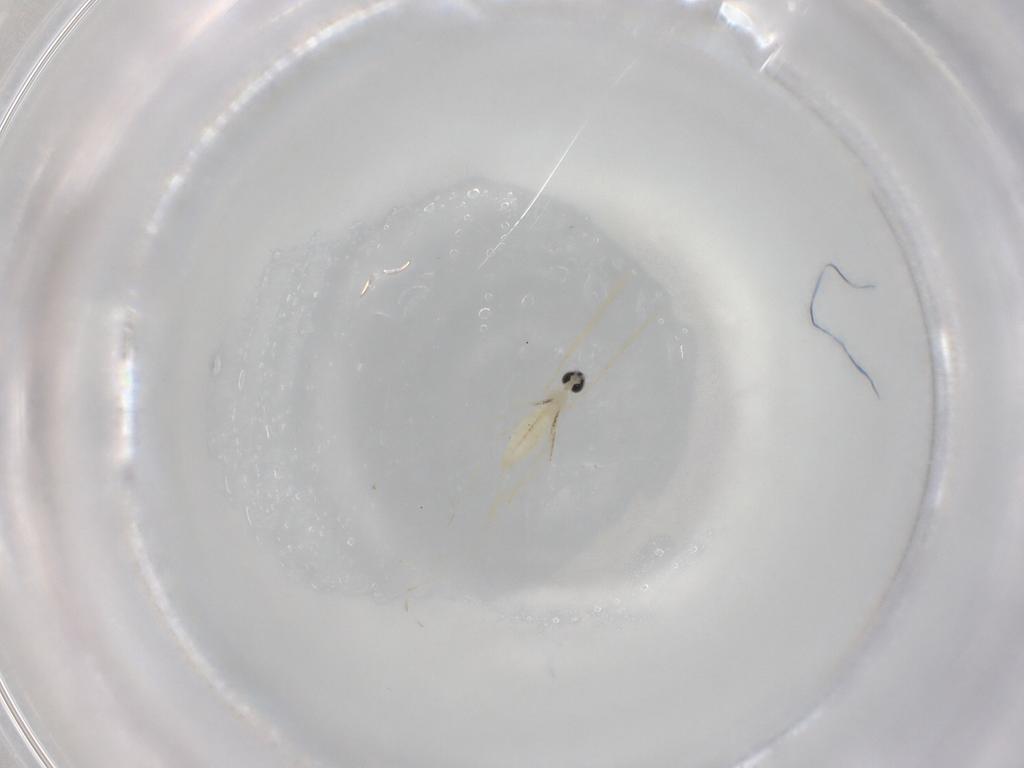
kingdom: Animalia
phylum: Arthropoda
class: Insecta
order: Diptera
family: Cecidomyiidae
